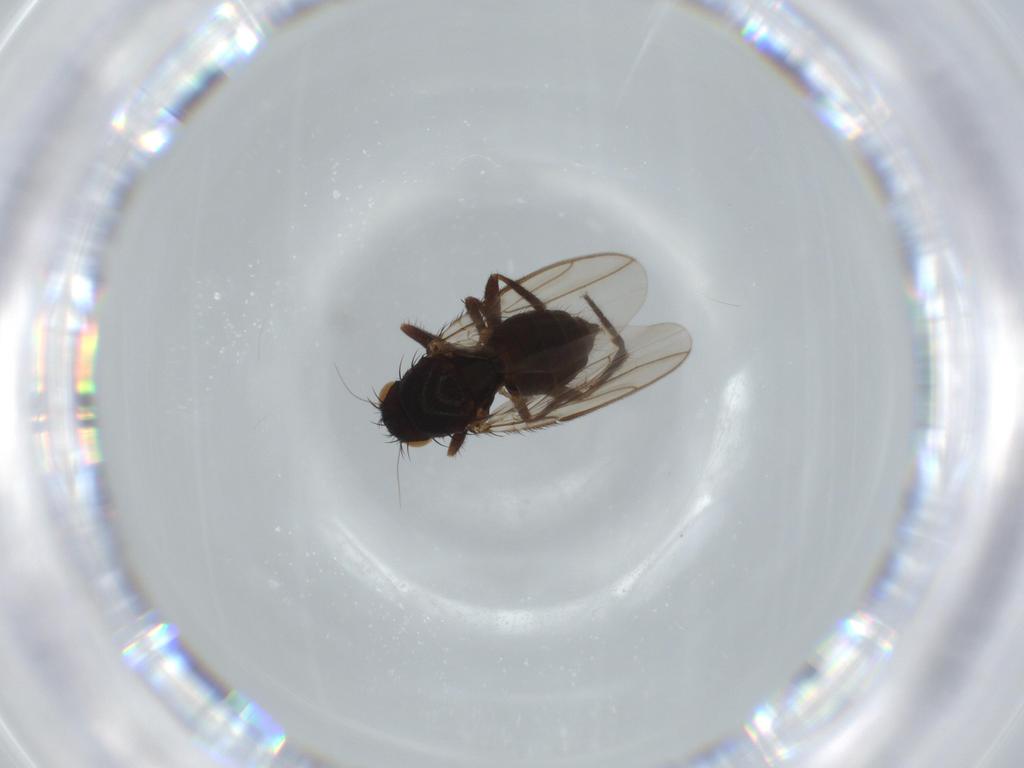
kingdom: Animalia
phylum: Arthropoda
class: Insecta
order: Diptera
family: Sphaeroceridae
